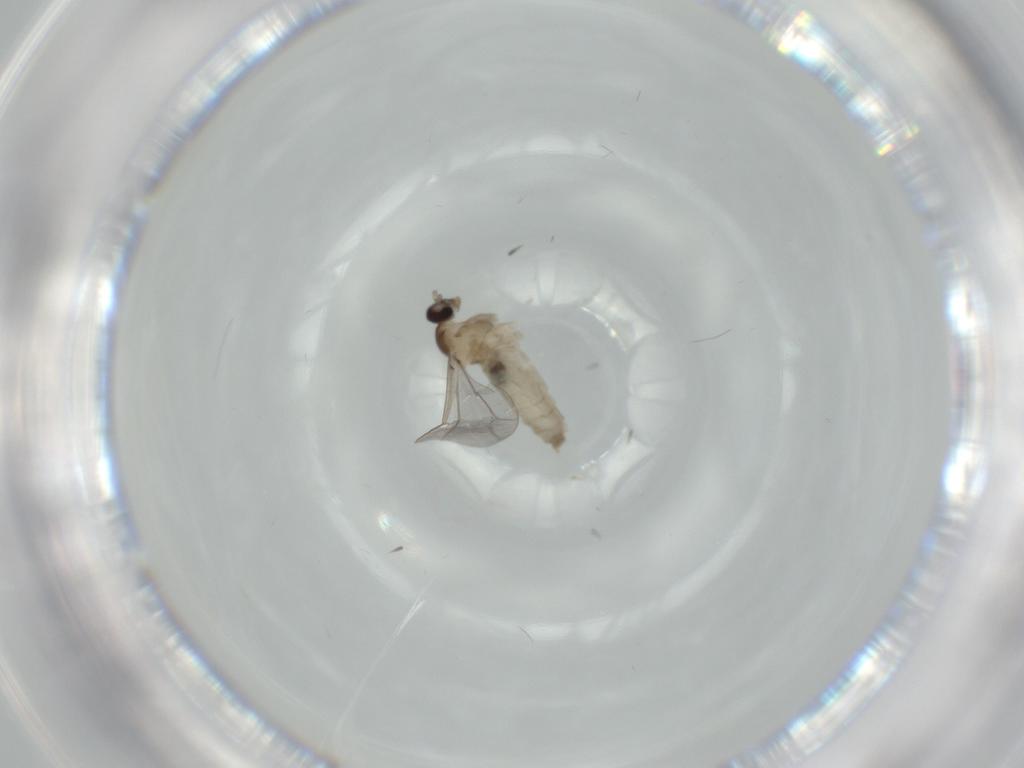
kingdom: Animalia
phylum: Arthropoda
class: Insecta
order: Diptera
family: Cecidomyiidae
